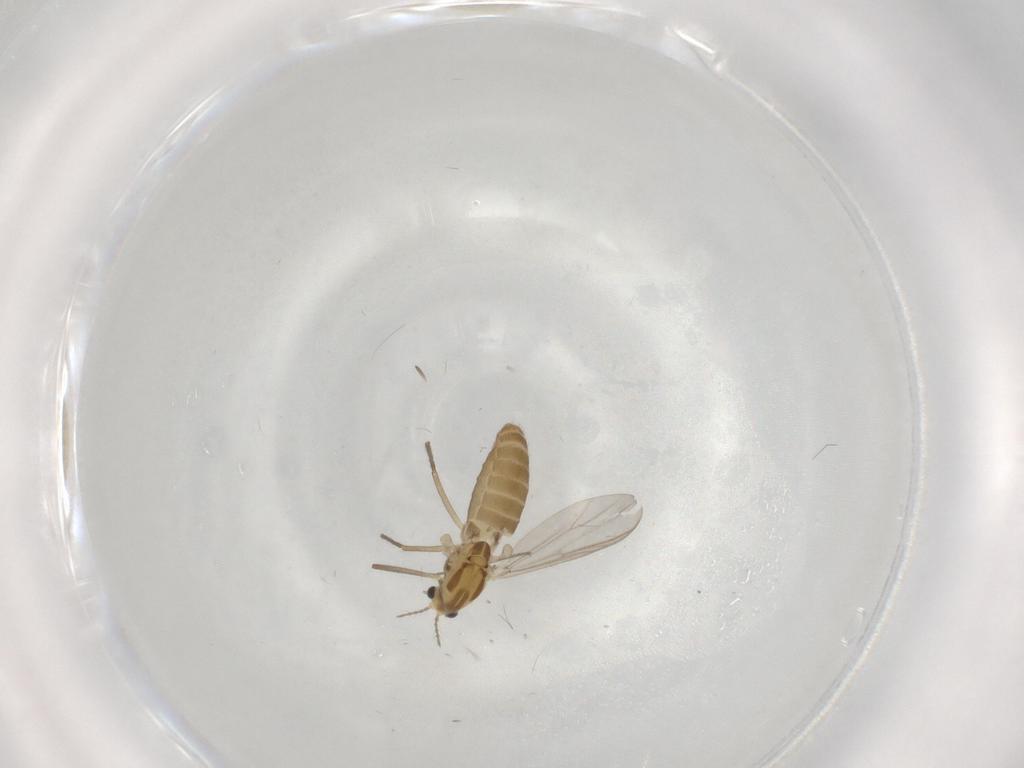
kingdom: Animalia
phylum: Arthropoda
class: Insecta
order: Diptera
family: Chironomidae
